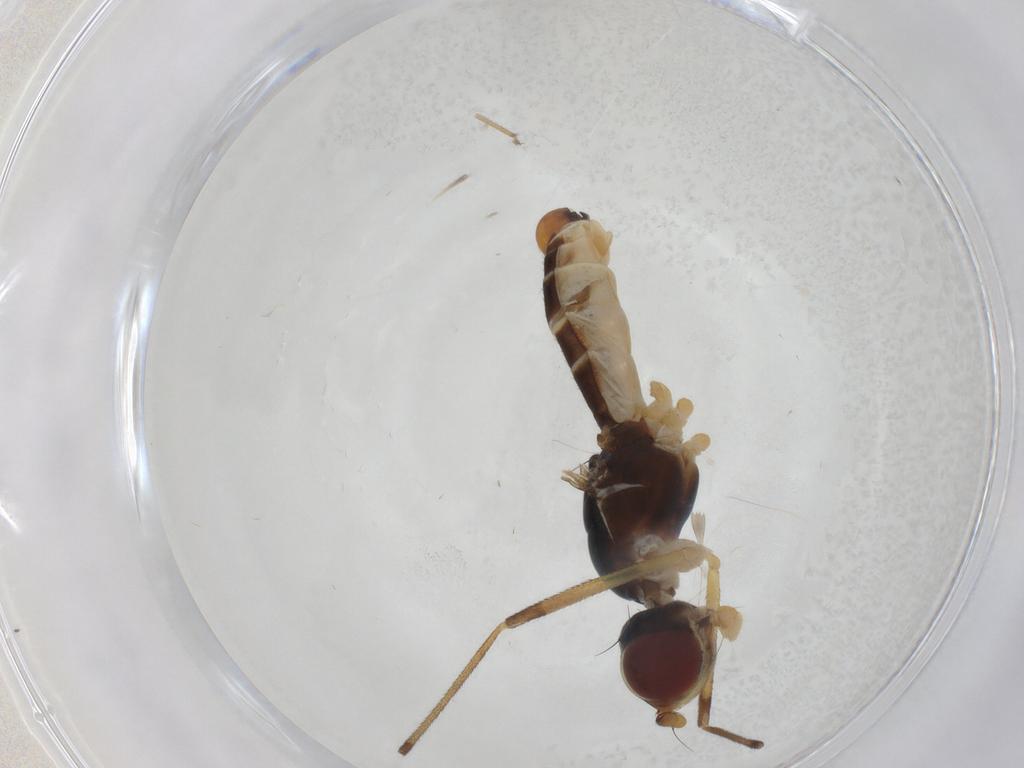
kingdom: Animalia
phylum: Arthropoda
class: Insecta
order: Diptera
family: Micropezidae
